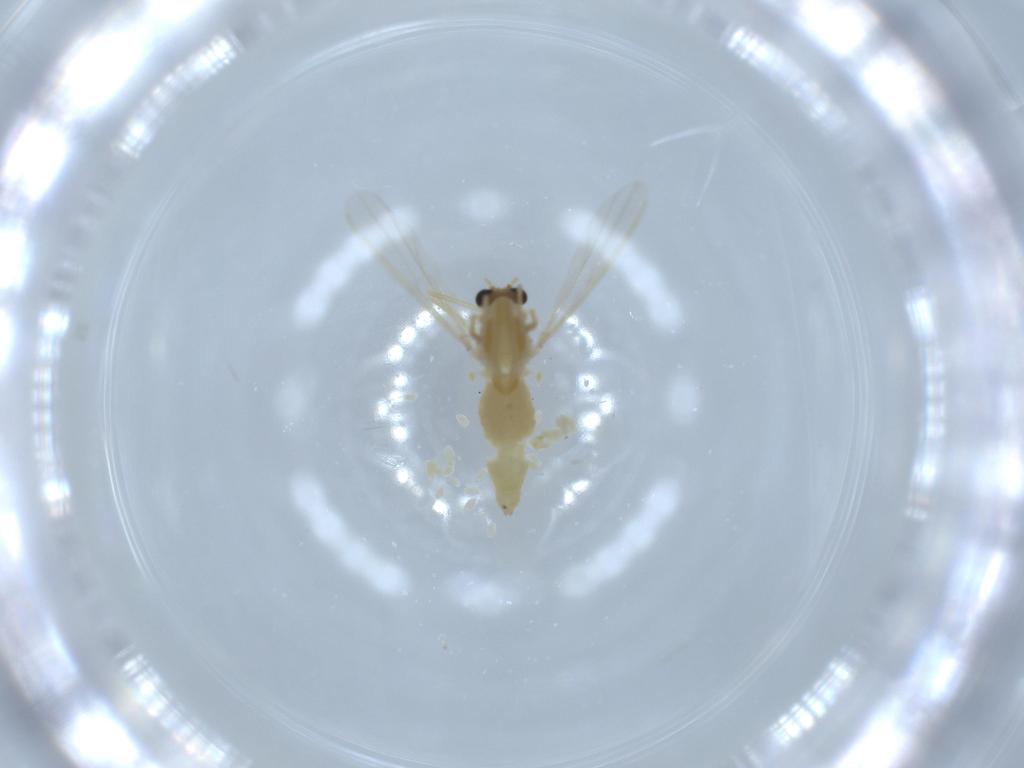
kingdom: Animalia
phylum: Arthropoda
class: Insecta
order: Diptera
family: Chironomidae
